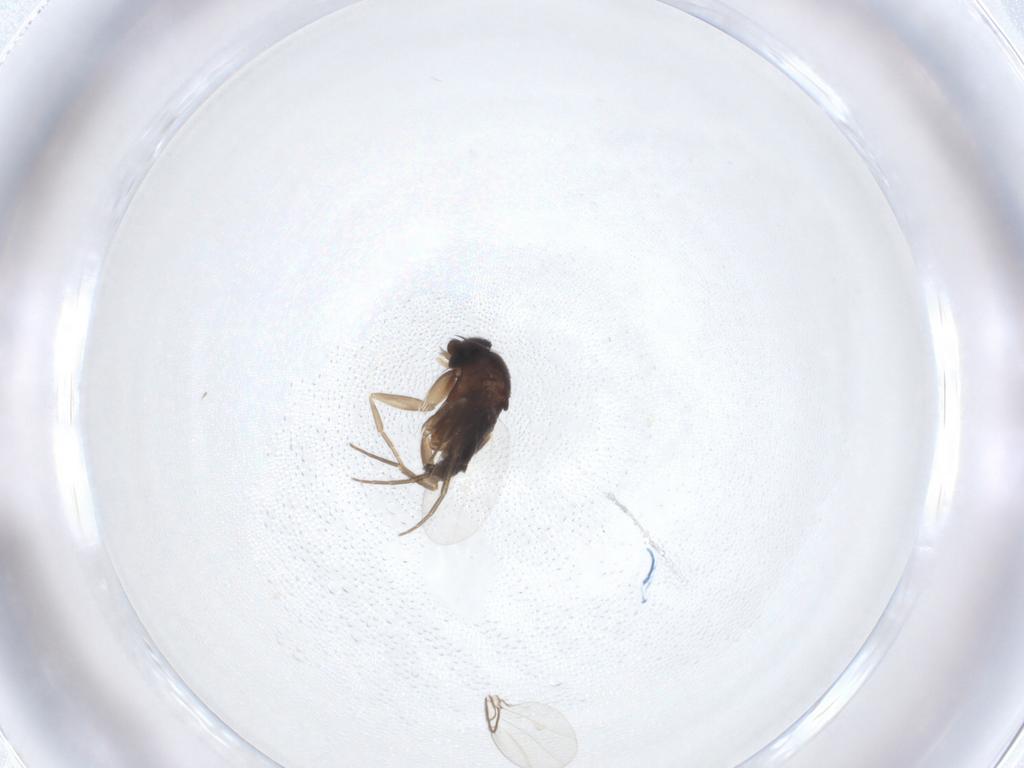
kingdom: Animalia
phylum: Arthropoda
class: Insecta
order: Diptera
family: Phoridae
